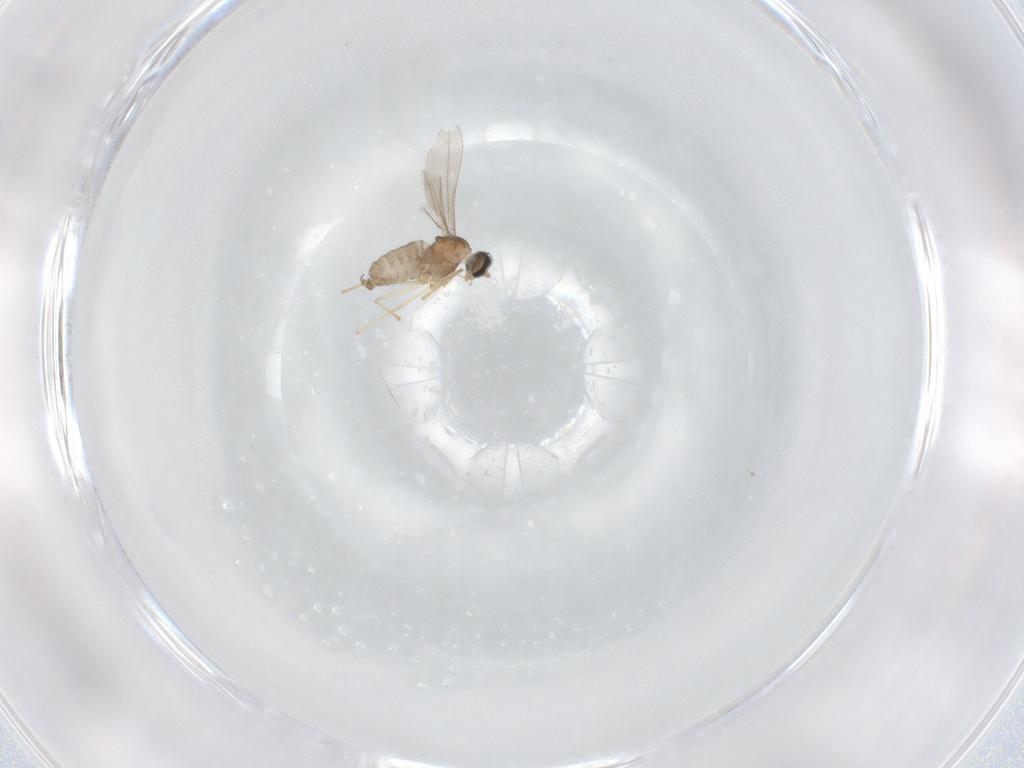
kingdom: Animalia
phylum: Arthropoda
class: Insecta
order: Diptera
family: Cecidomyiidae
